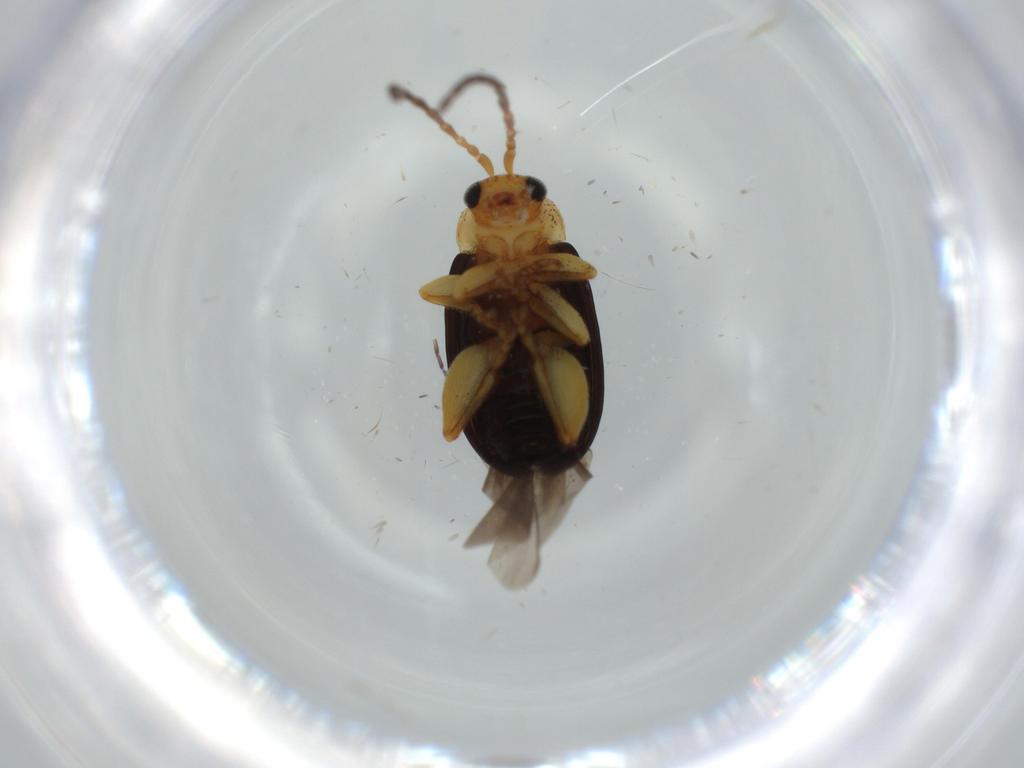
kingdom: Animalia
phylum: Arthropoda
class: Insecta
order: Coleoptera
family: Chrysomelidae
